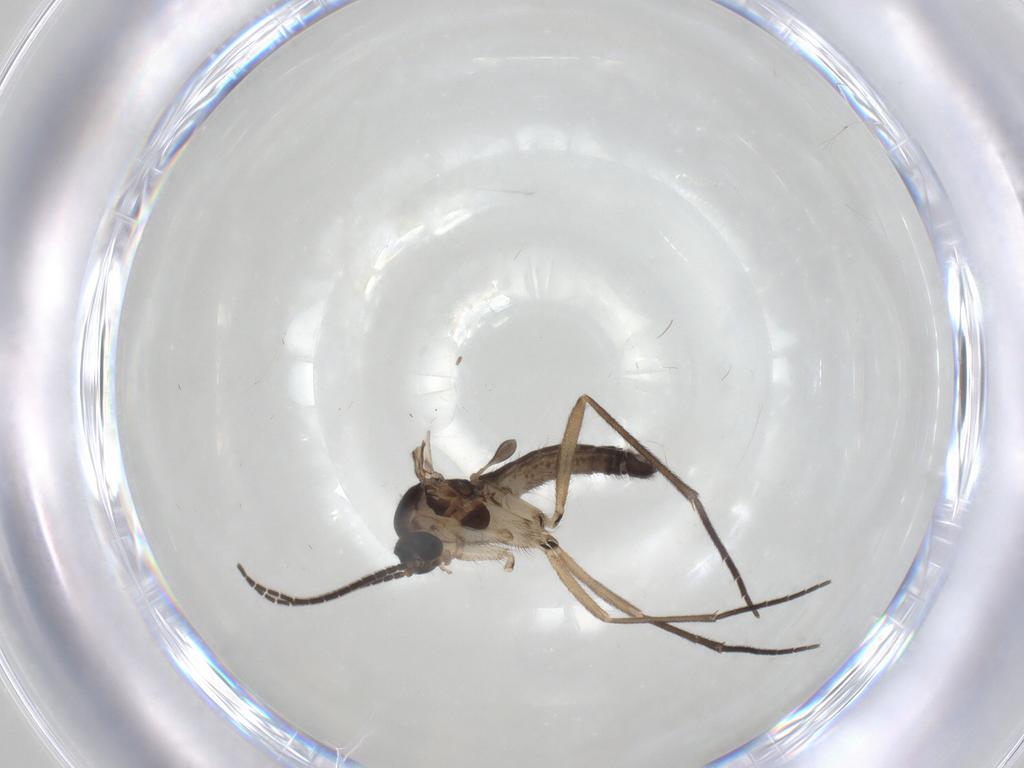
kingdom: Animalia
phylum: Arthropoda
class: Insecta
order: Diptera
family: Sciaridae
